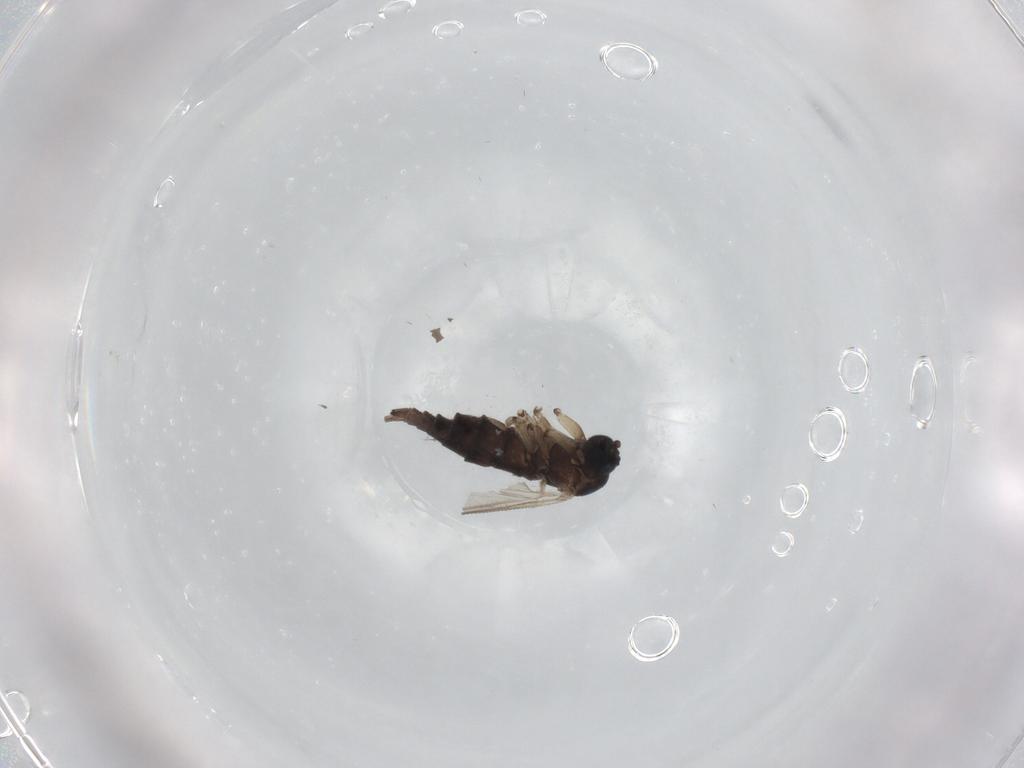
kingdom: Animalia
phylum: Arthropoda
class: Insecta
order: Diptera
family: Sciaridae
